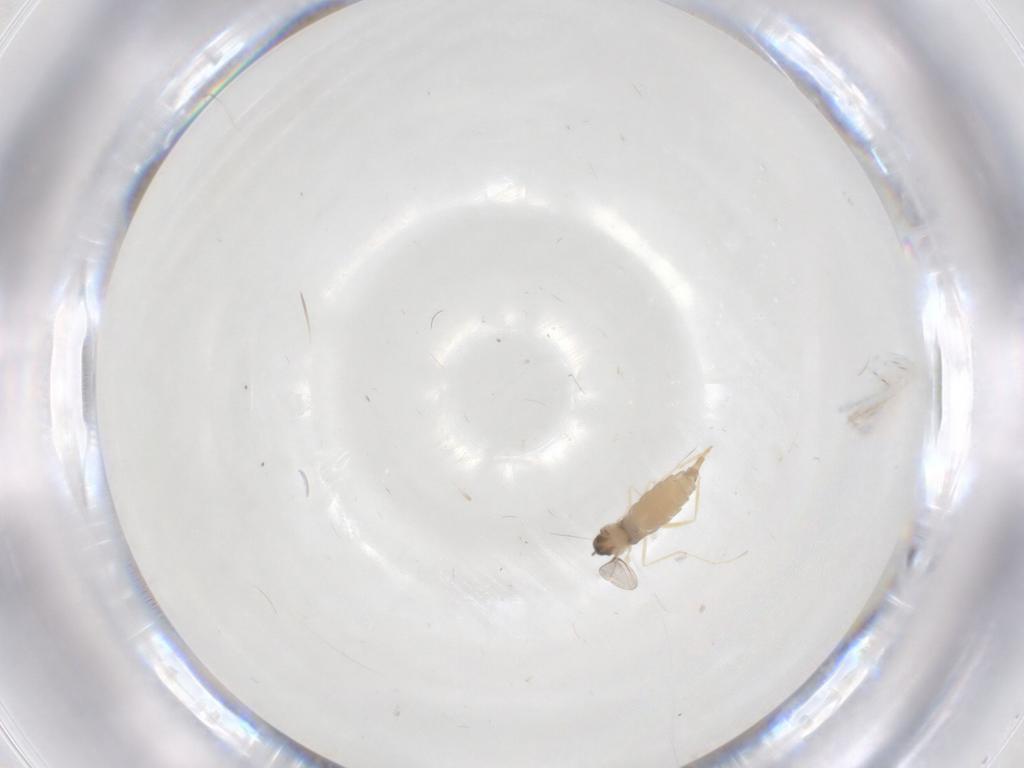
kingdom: Animalia
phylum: Arthropoda
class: Insecta
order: Diptera
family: Cecidomyiidae
